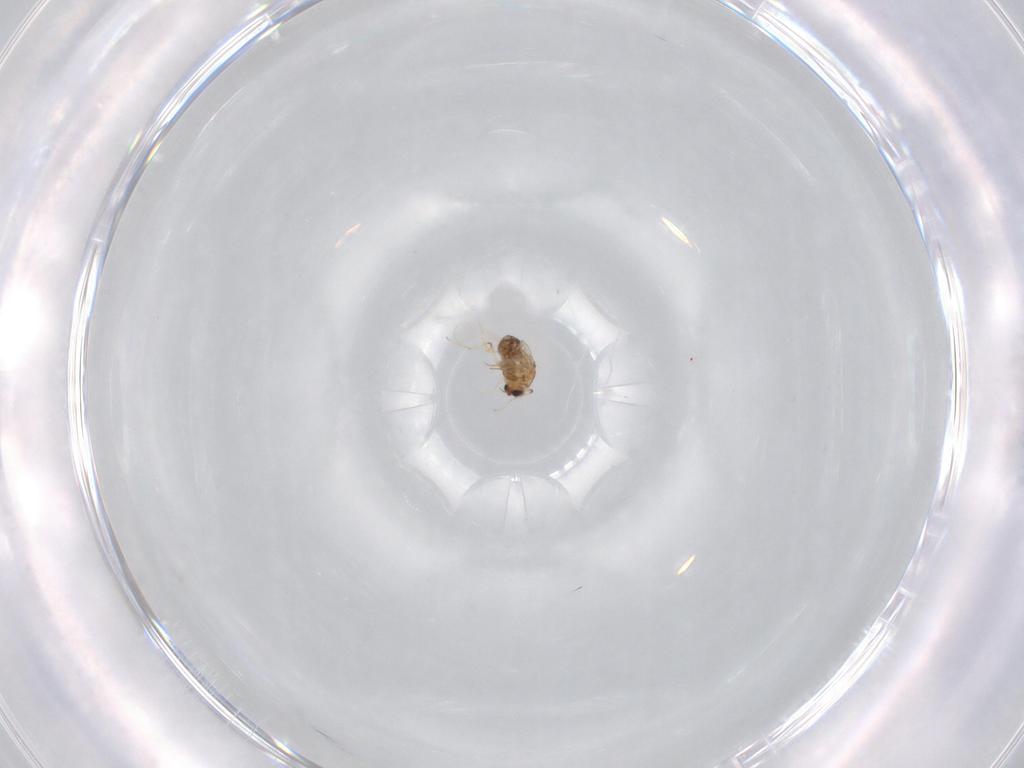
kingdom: Animalia
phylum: Arthropoda
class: Insecta
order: Diptera
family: Chironomidae
